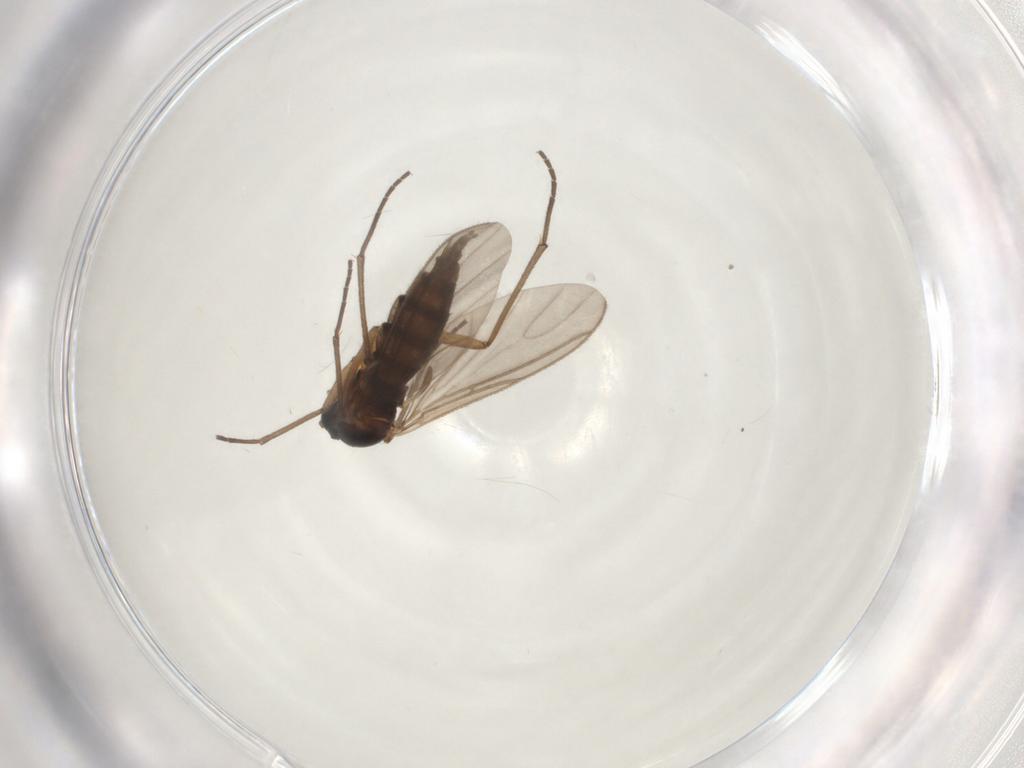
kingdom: Animalia
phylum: Arthropoda
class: Insecta
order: Diptera
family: Sciaridae
